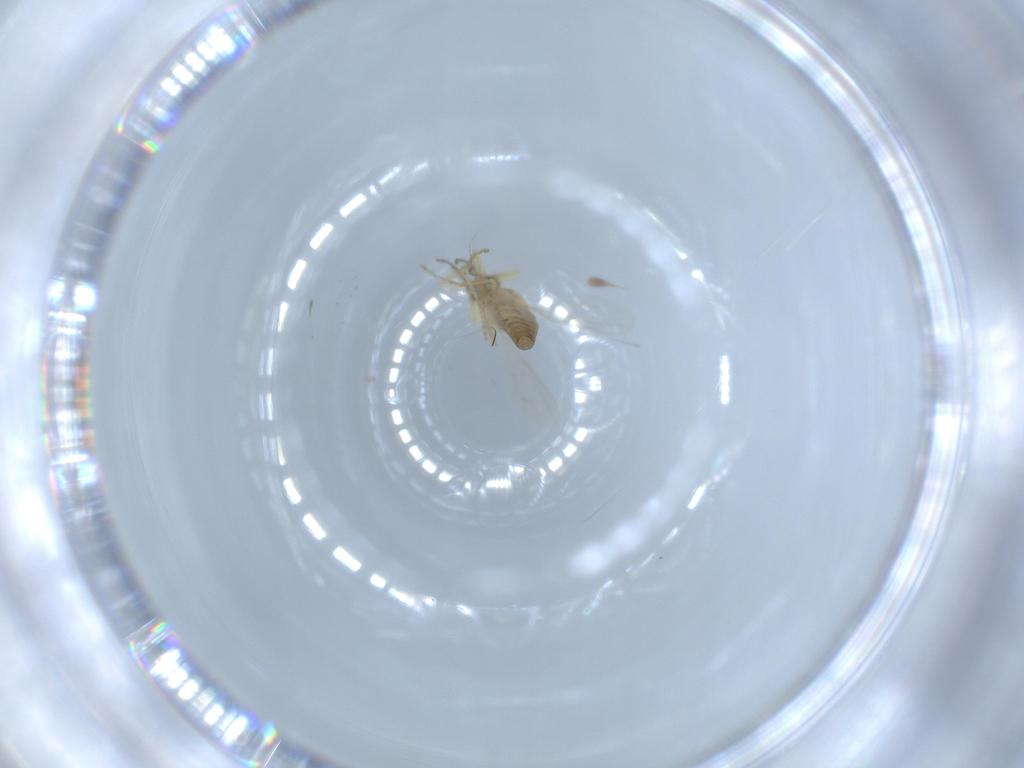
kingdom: Animalia
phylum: Arthropoda
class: Insecta
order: Diptera
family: Ceratopogonidae
